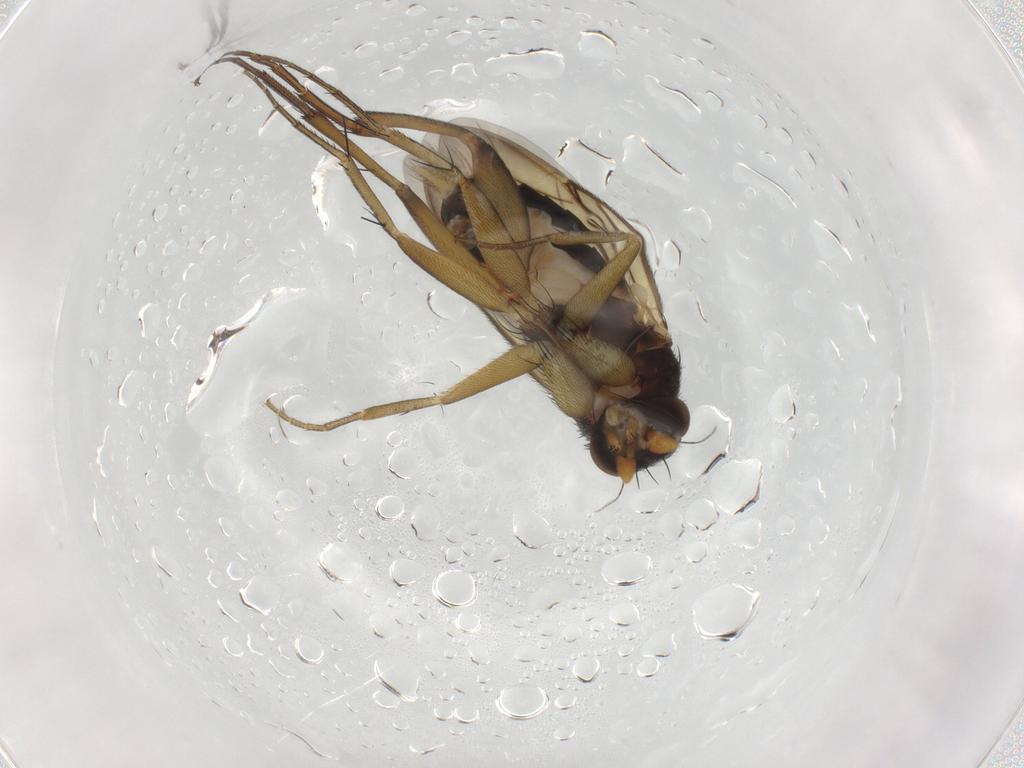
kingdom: Animalia
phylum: Arthropoda
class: Insecta
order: Diptera
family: Phoridae
